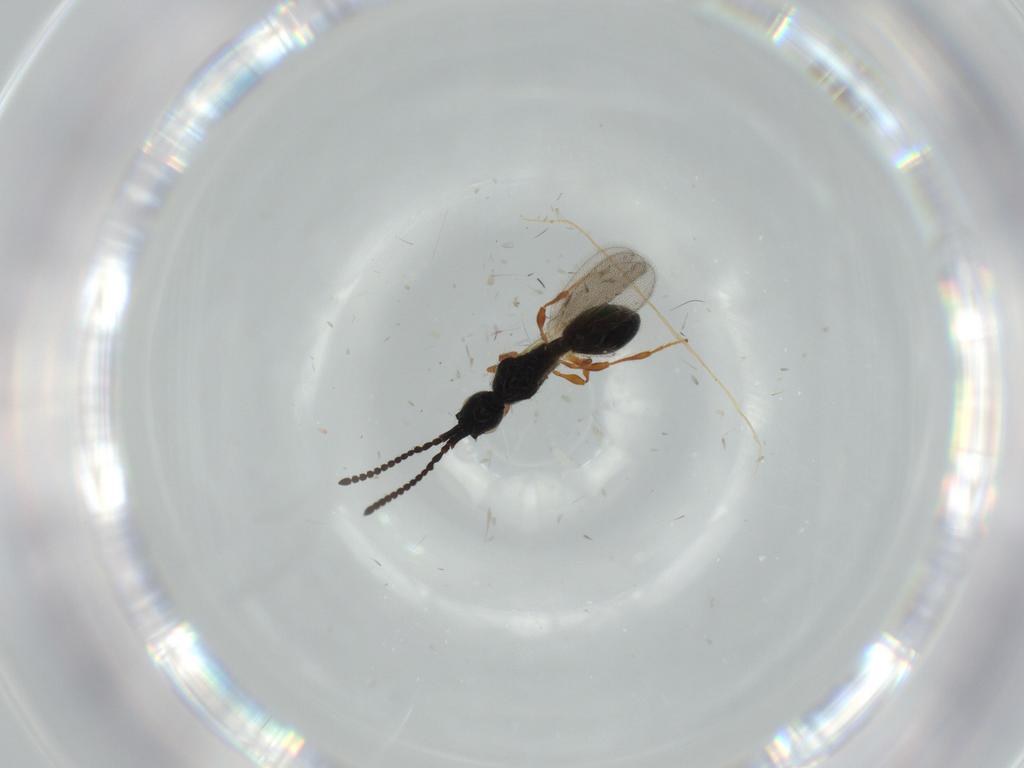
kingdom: Animalia
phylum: Arthropoda
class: Insecta
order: Hymenoptera
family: Diapriidae
